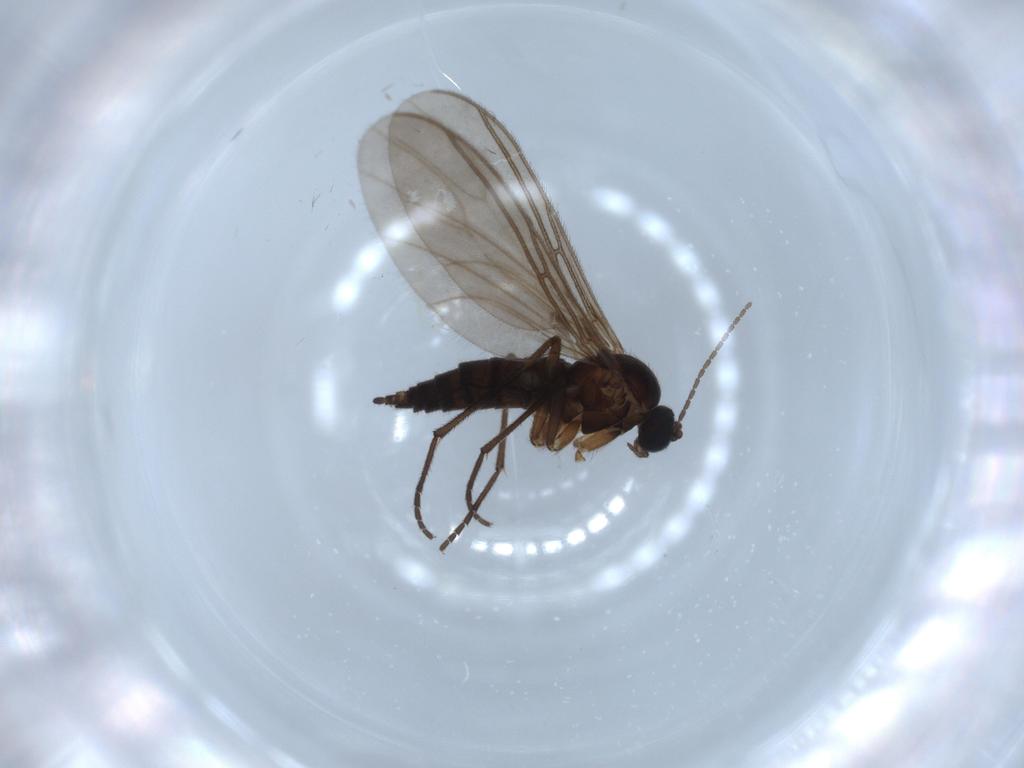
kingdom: Animalia
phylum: Arthropoda
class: Insecta
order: Diptera
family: Sciaridae
